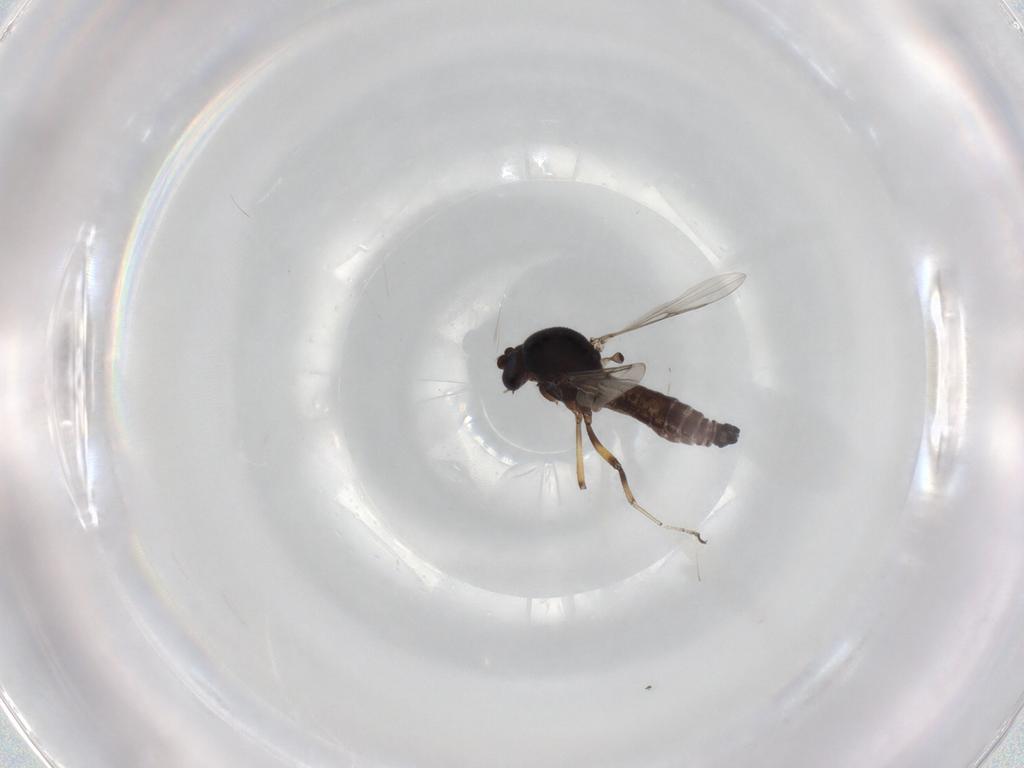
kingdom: Animalia
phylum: Arthropoda
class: Insecta
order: Diptera
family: Ceratopogonidae
